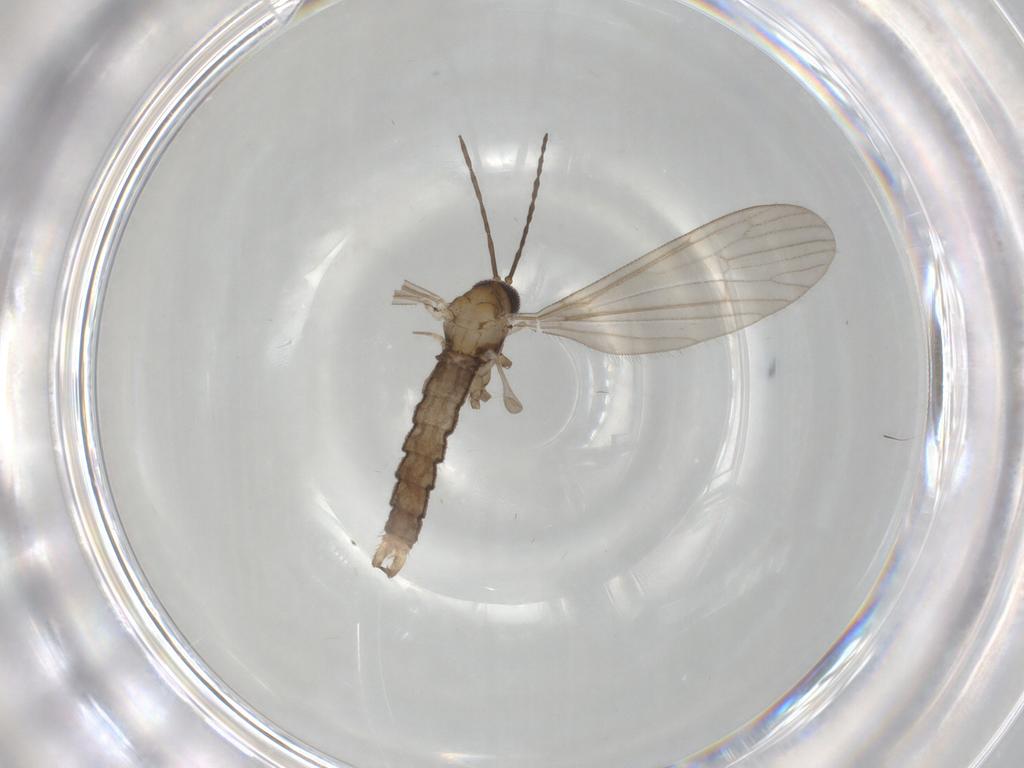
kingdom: Animalia
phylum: Arthropoda
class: Insecta
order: Diptera
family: Limoniidae
